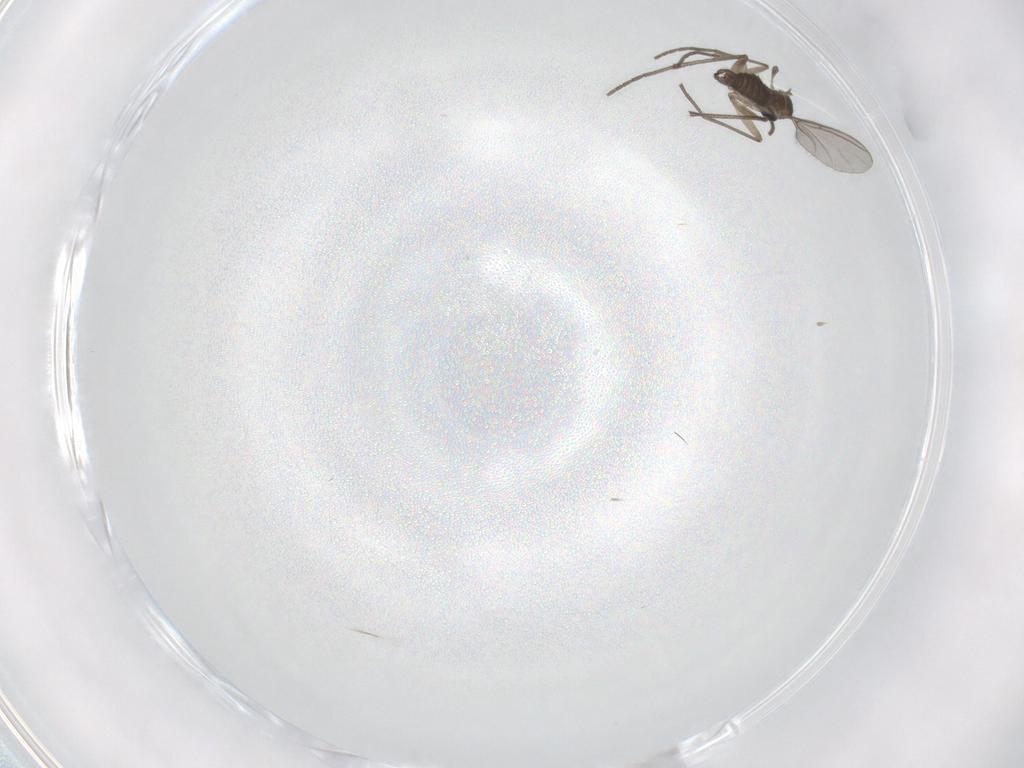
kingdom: Animalia
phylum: Arthropoda
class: Insecta
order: Diptera
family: Sciaridae
